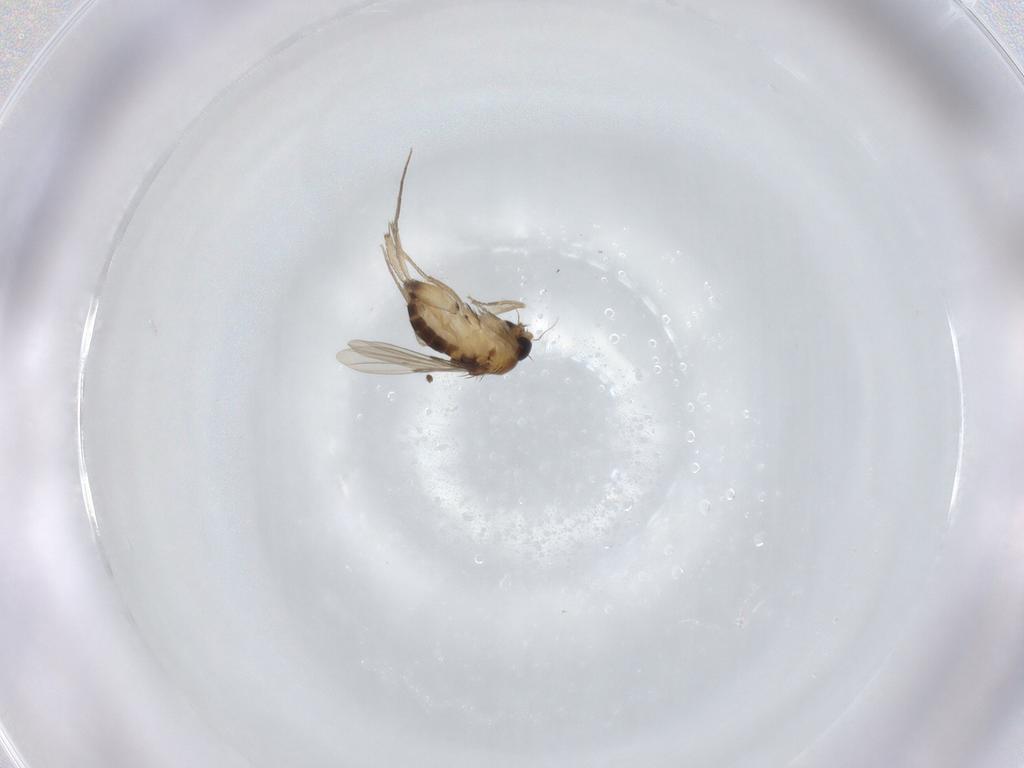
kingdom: Animalia
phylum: Arthropoda
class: Insecta
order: Diptera
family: Phoridae
